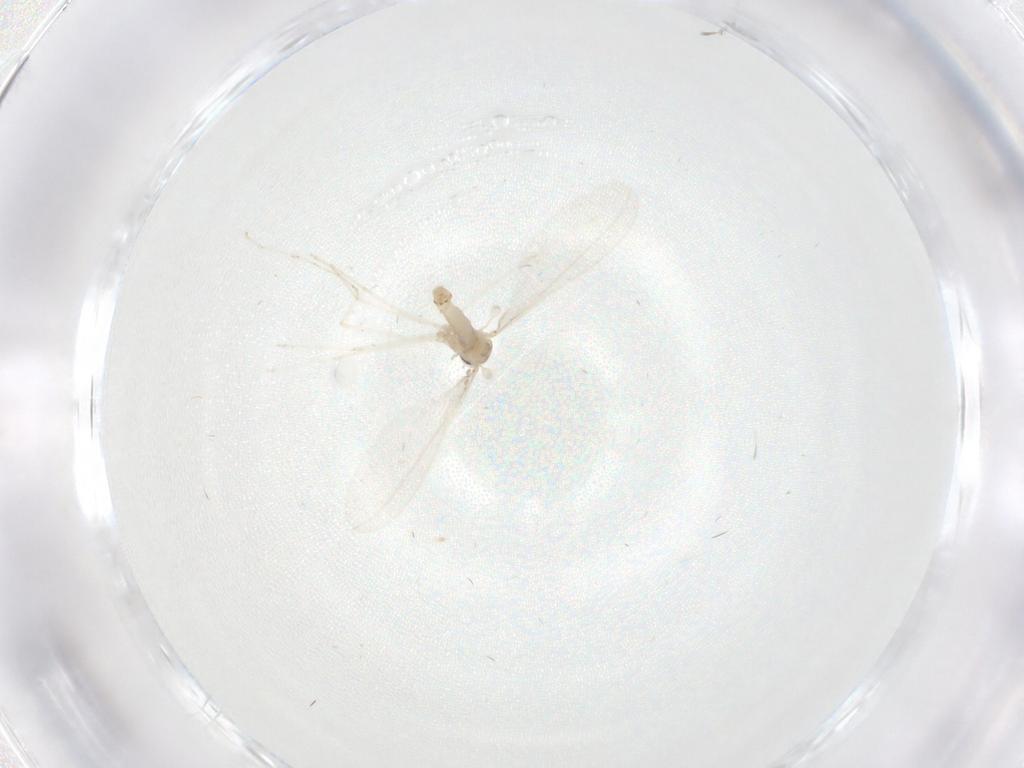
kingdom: Animalia
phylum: Arthropoda
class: Insecta
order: Diptera
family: Cecidomyiidae
